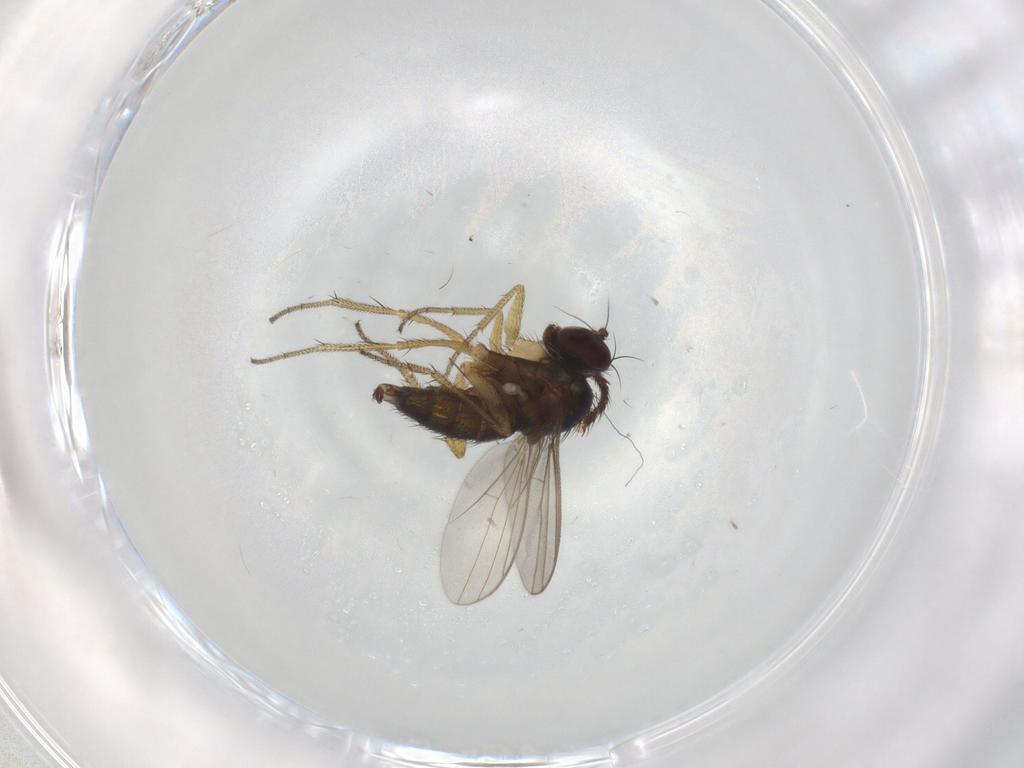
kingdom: Animalia
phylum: Arthropoda
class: Insecta
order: Diptera
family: Dolichopodidae
